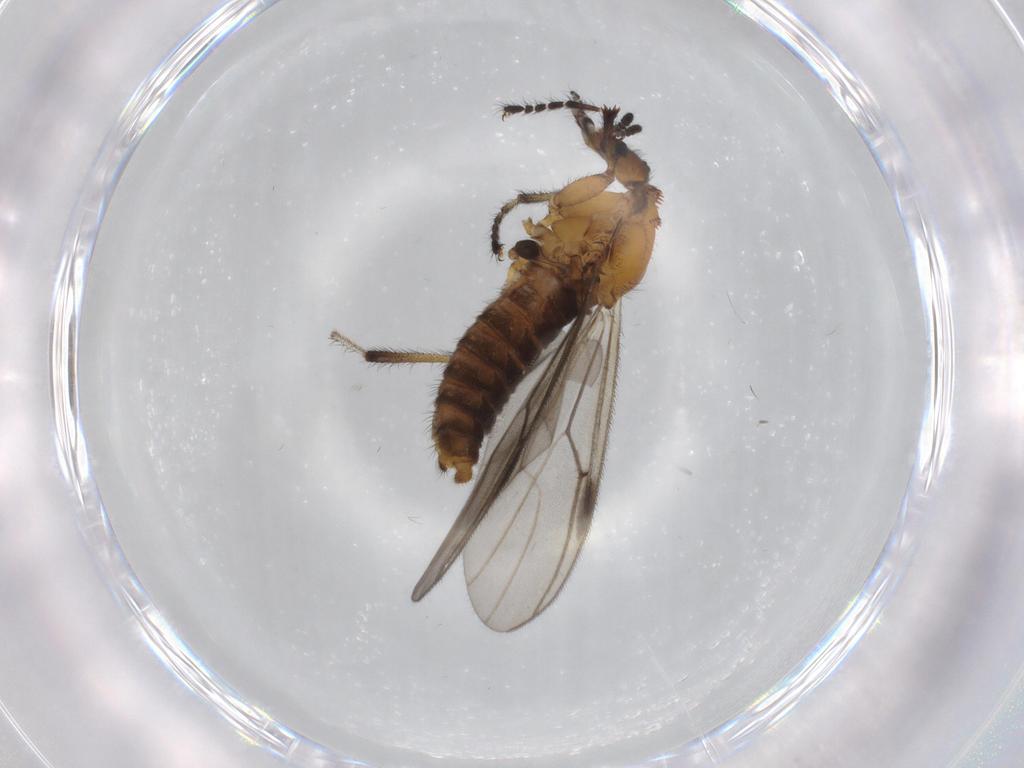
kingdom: Animalia
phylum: Arthropoda
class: Insecta
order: Diptera
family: Bibionidae
